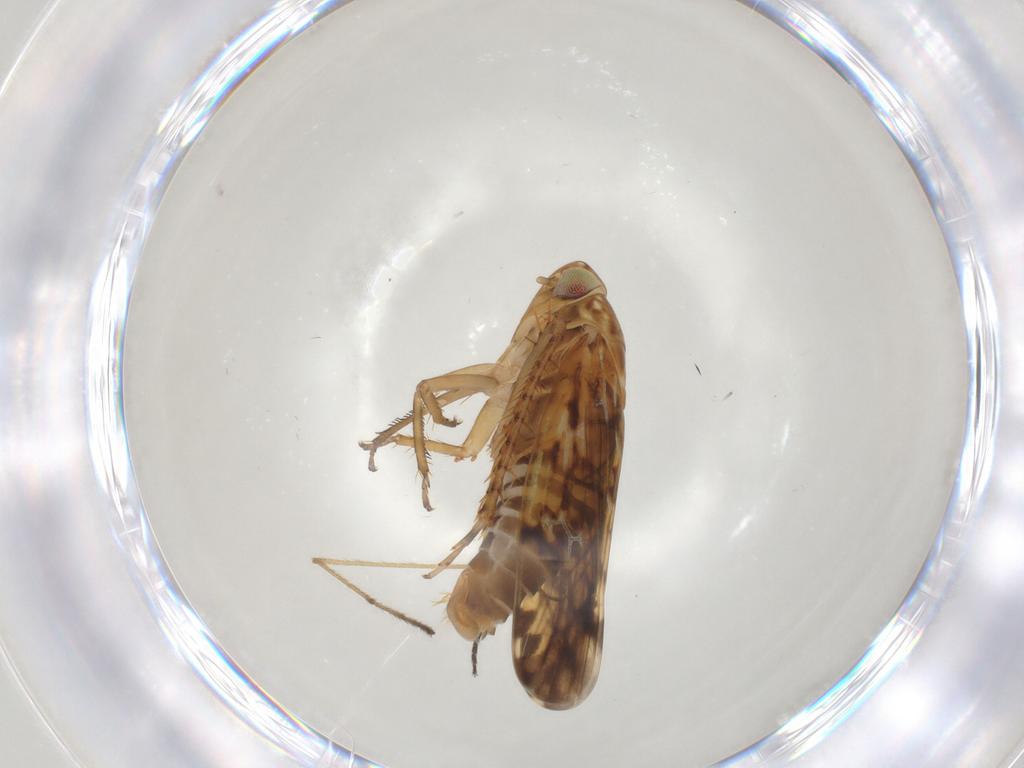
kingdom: Animalia
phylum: Arthropoda
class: Insecta
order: Hemiptera
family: Cicadellidae
